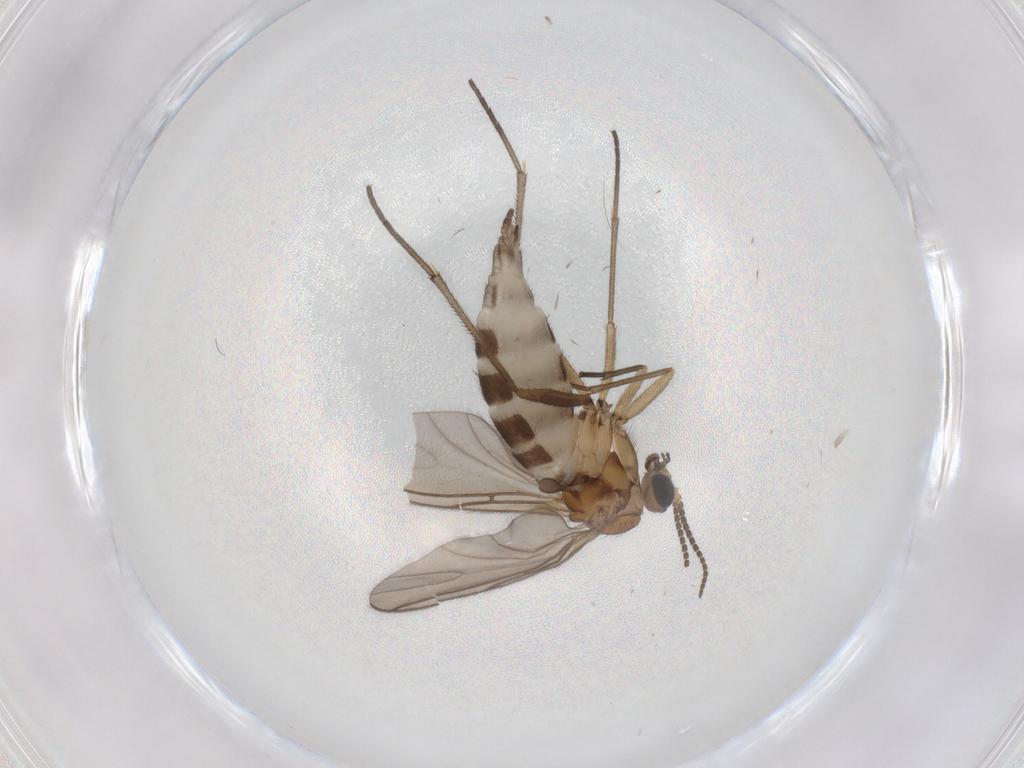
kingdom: Animalia
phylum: Arthropoda
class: Insecta
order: Diptera
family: Sciaridae
